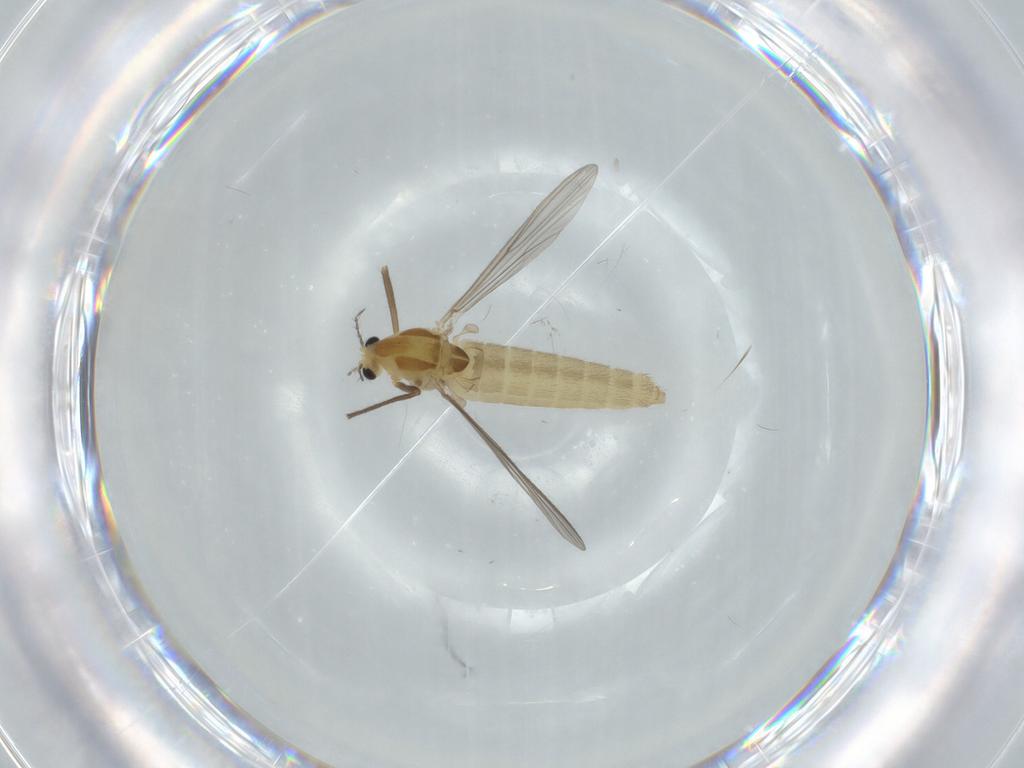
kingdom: Animalia
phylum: Arthropoda
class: Insecta
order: Diptera
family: Chironomidae
